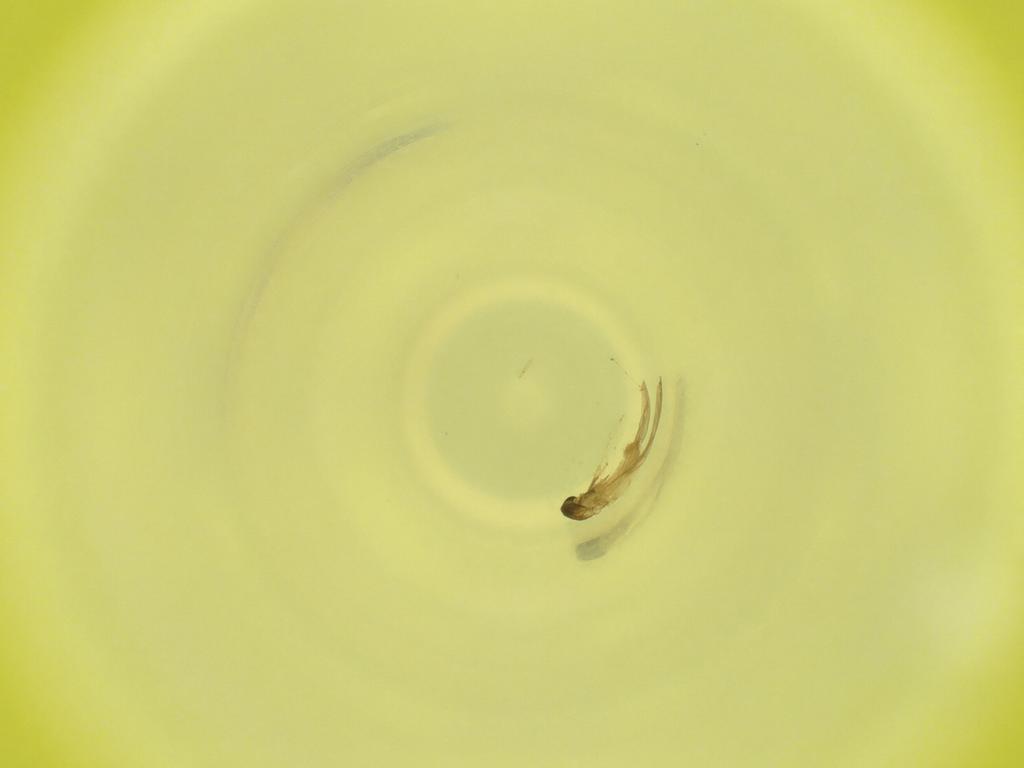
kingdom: Animalia
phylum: Arthropoda
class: Insecta
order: Diptera
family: Cecidomyiidae
